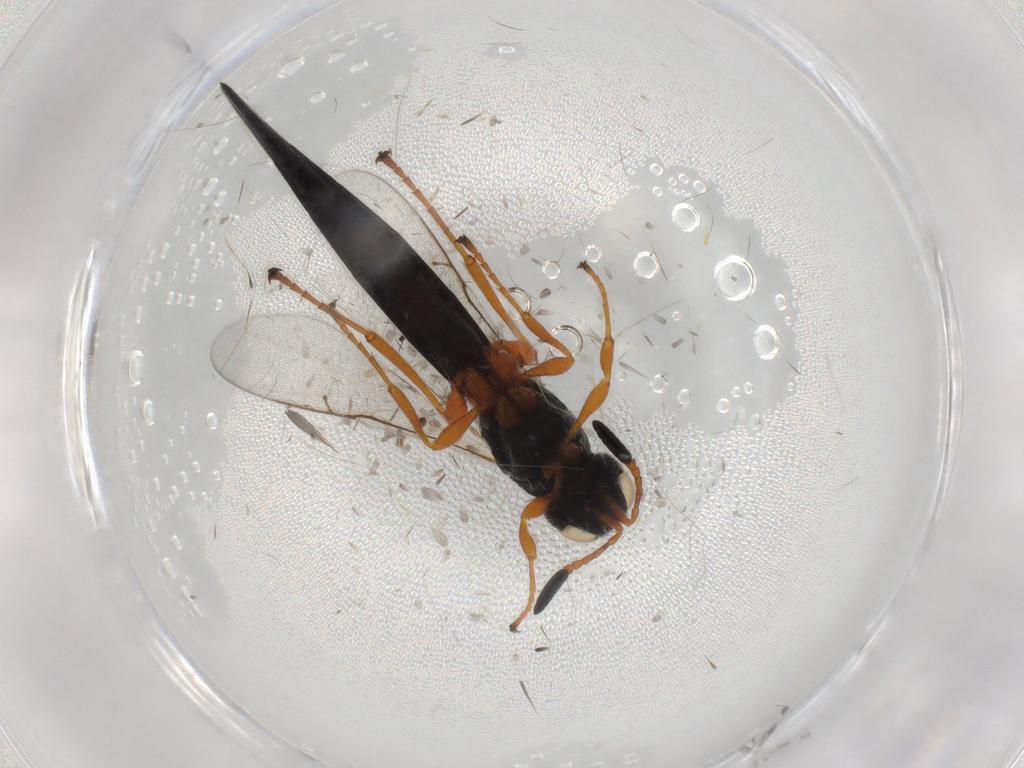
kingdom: Animalia
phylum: Arthropoda
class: Insecta
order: Hymenoptera
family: Scelionidae
